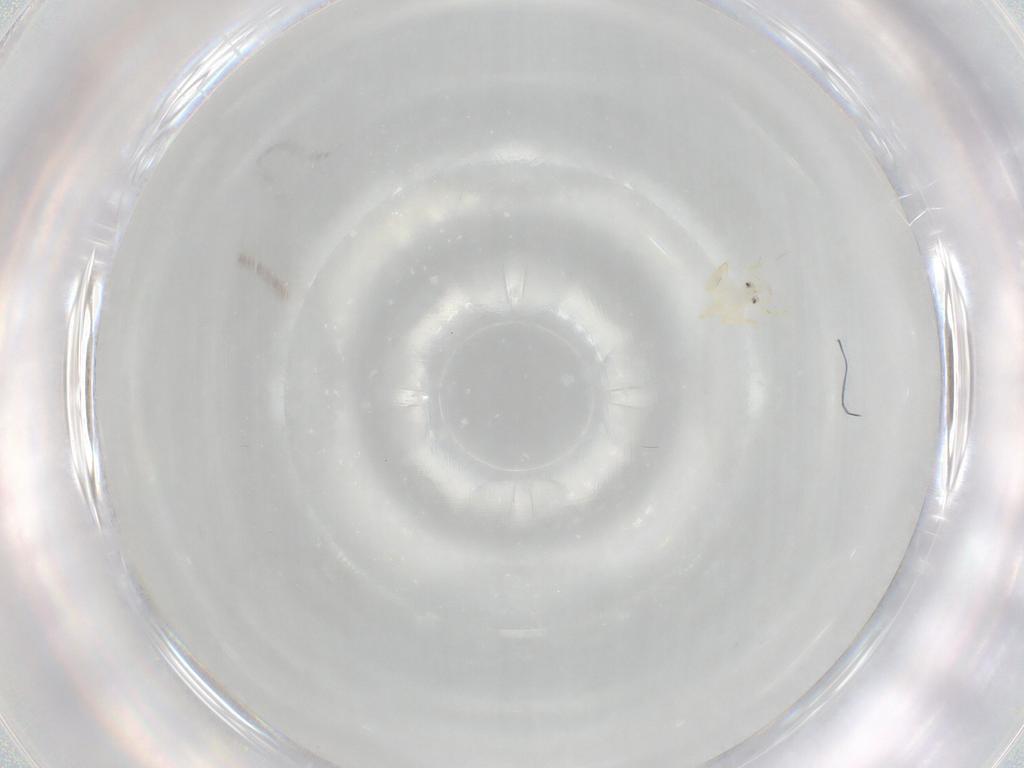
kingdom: Animalia
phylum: Arthropoda
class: Insecta
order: Hemiptera
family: Aleyrodidae
